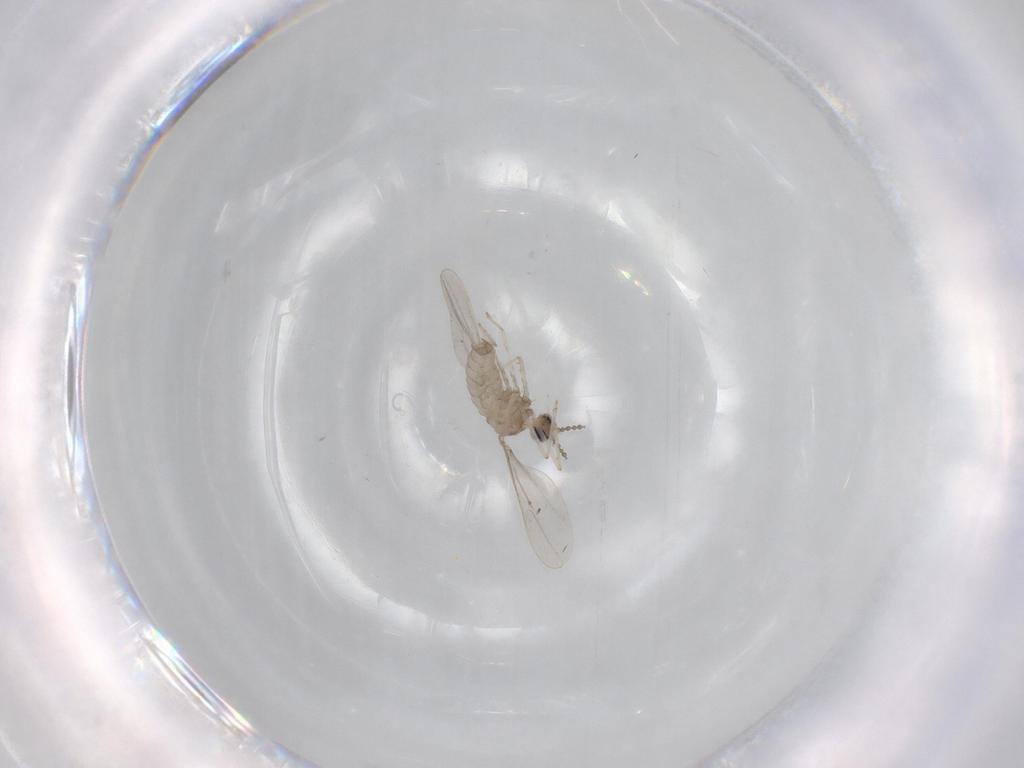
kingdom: Animalia
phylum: Arthropoda
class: Insecta
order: Diptera
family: Cecidomyiidae
